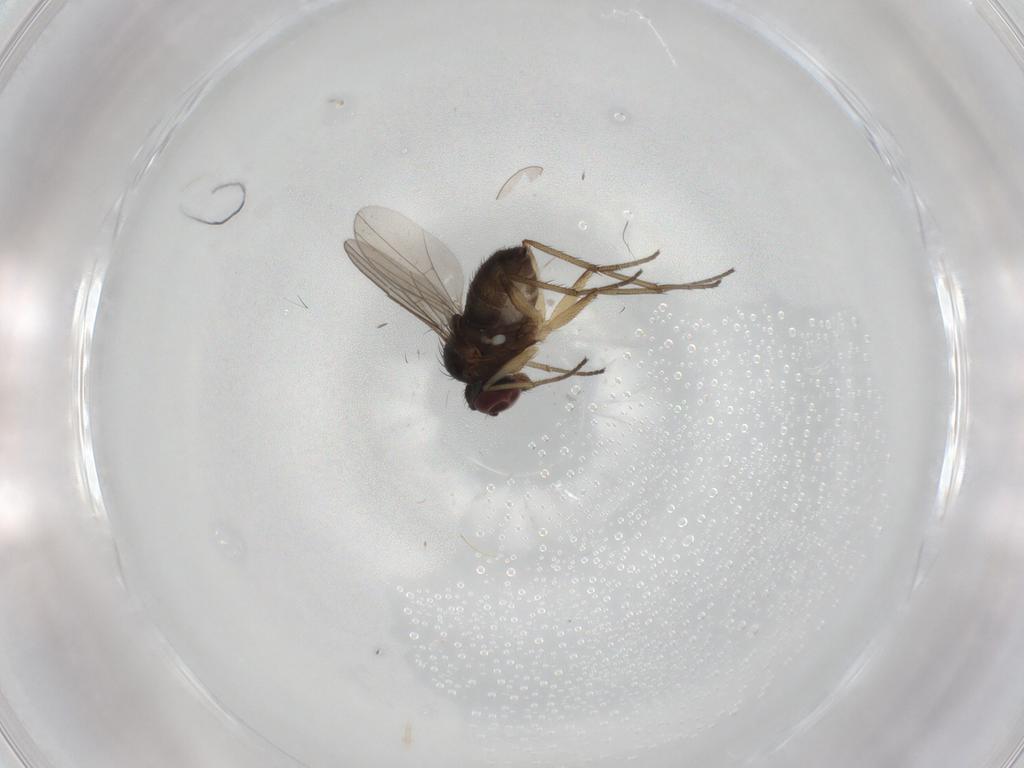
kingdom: Animalia
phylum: Arthropoda
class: Insecta
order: Diptera
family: Dolichopodidae
